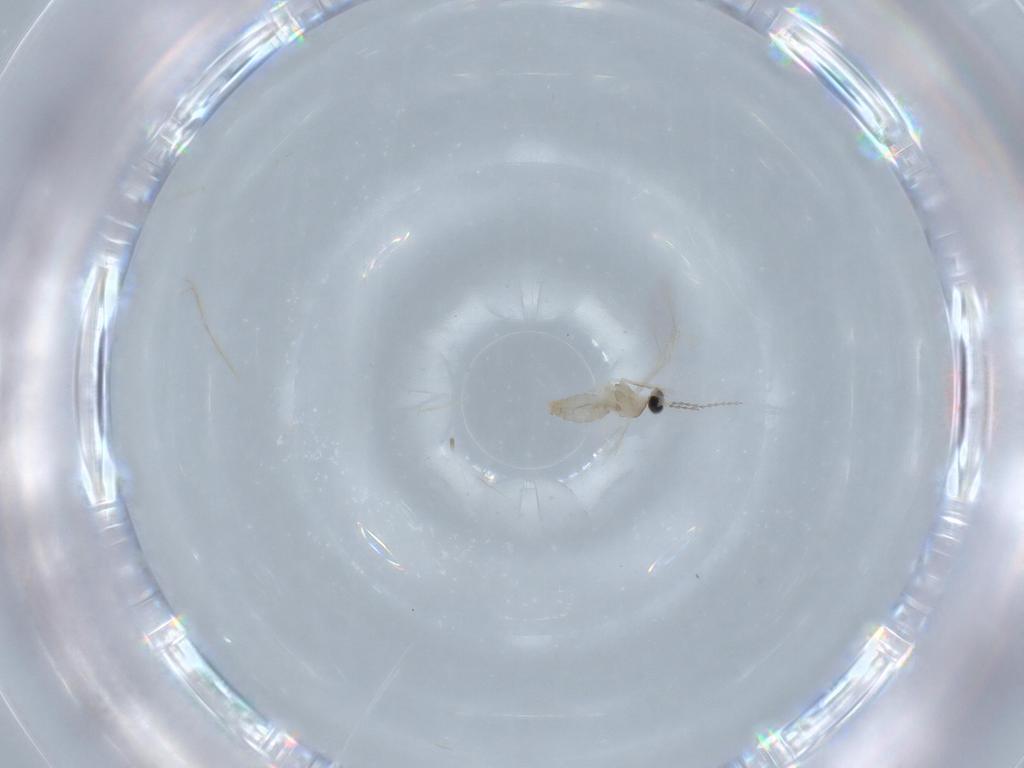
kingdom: Animalia
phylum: Arthropoda
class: Insecta
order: Diptera
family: Cecidomyiidae
